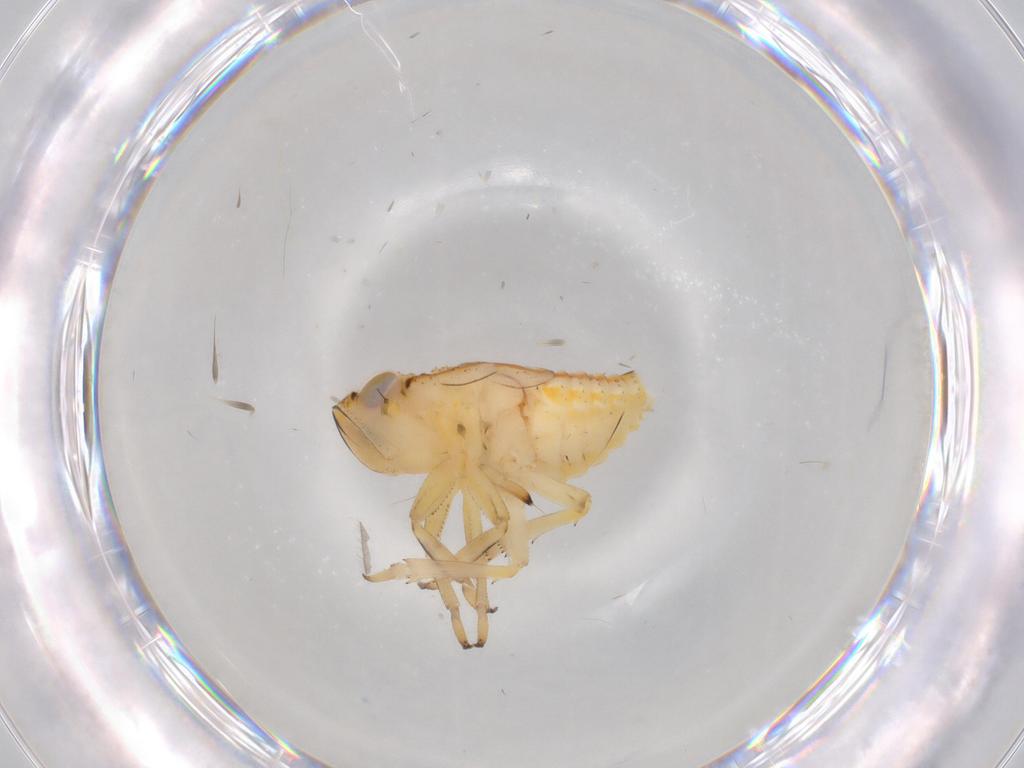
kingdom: Animalia
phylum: Arthropoda
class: Insecta
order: Hemiptera
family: Issidae
